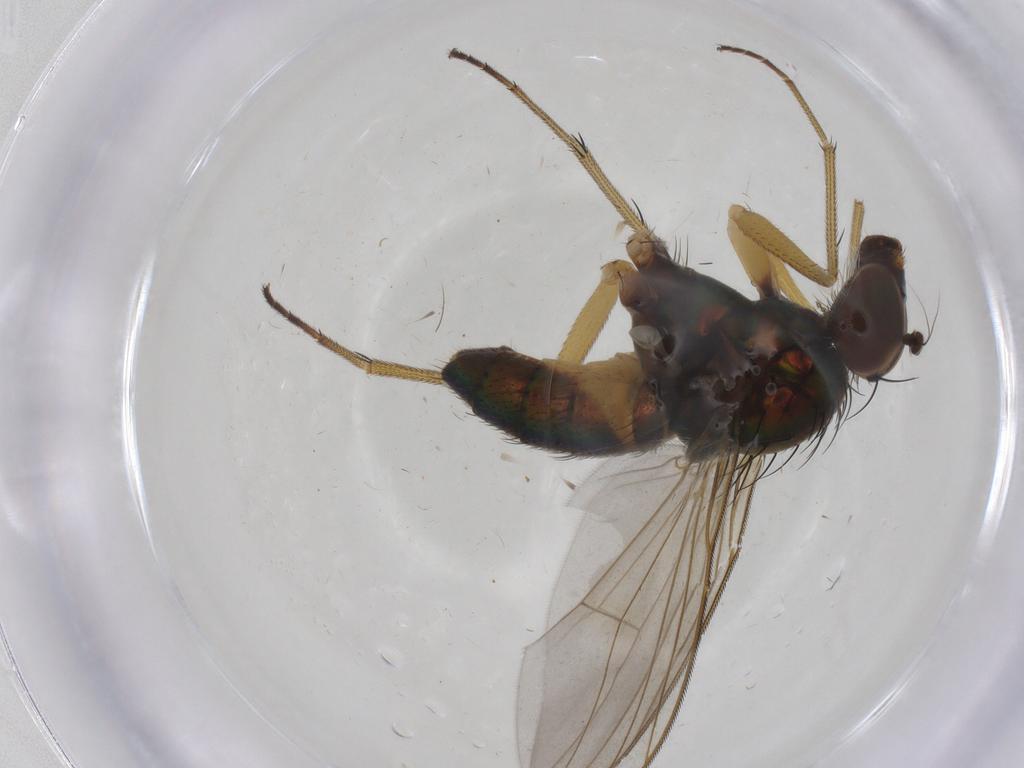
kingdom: Animalia
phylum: Arthropoda
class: Insecta
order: Diptera
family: Ceratopogonidae
